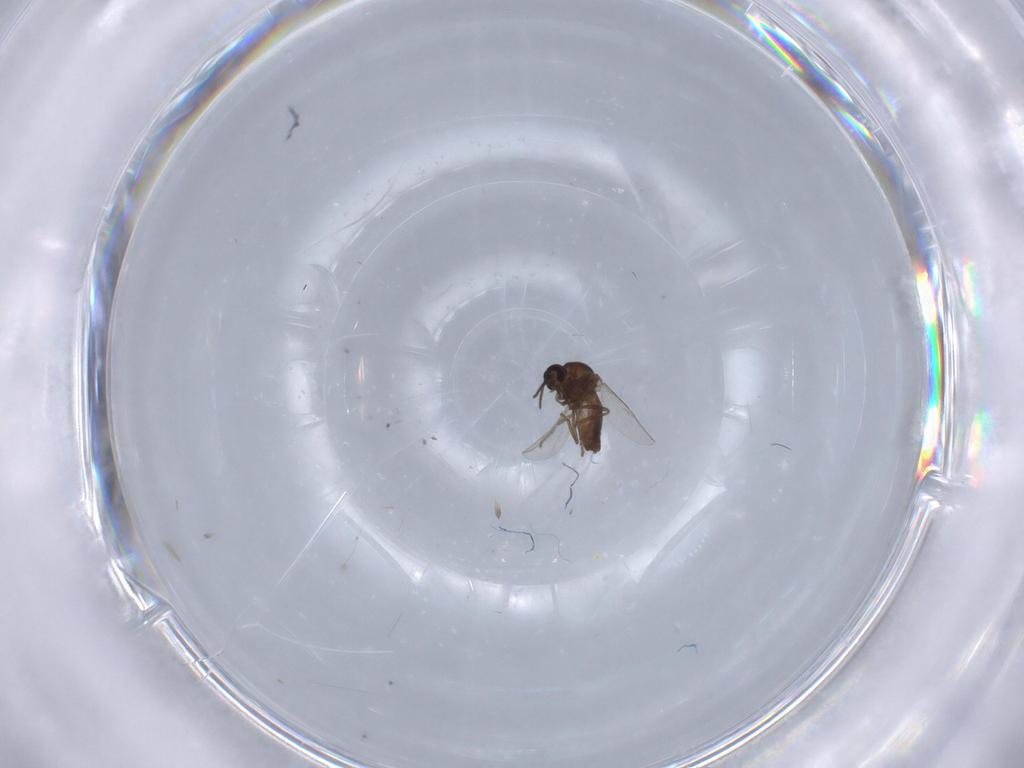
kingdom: Animalia
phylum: Arthropoda
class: Insecta
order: Diptera
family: Ceratopogonidae
